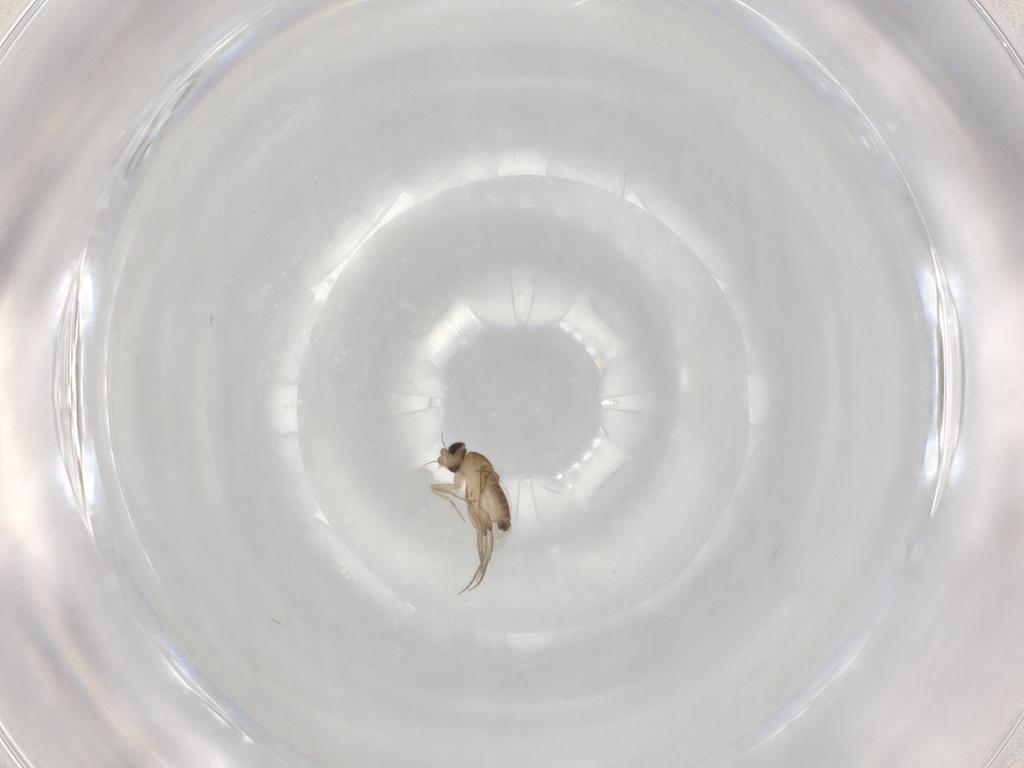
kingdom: Animalia
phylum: Arthropoda
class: Insecta
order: Diptera
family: Phoridae
